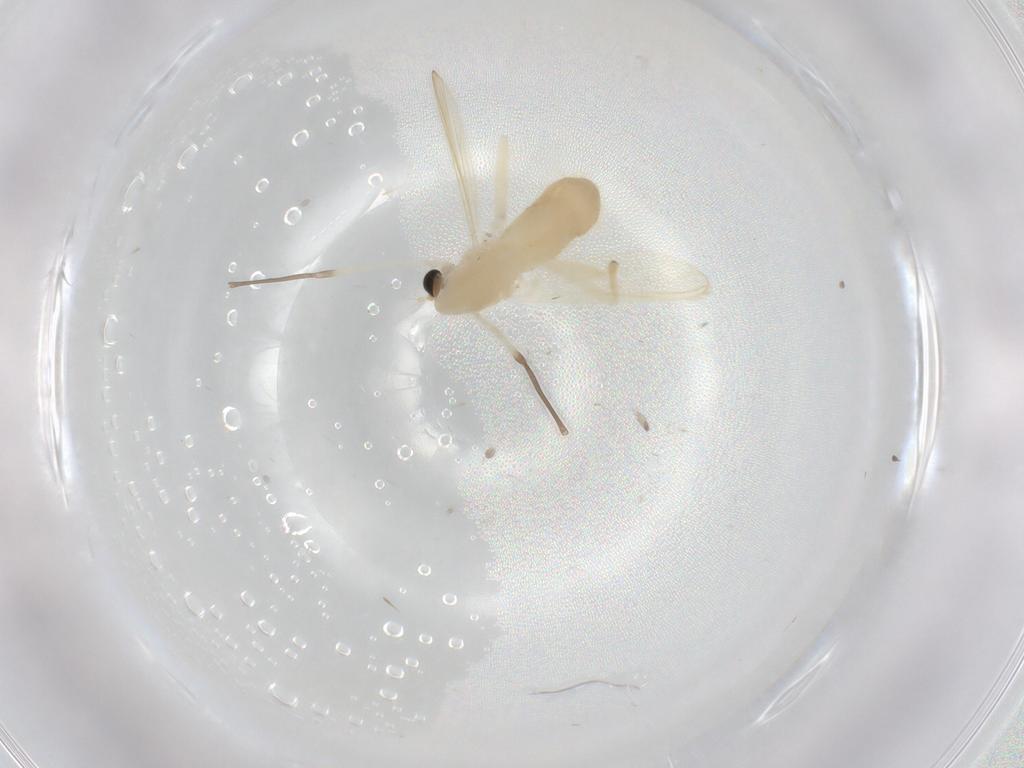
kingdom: Animalia
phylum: Arthropoda
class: Insecta
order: Diptera
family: Chironomidae
